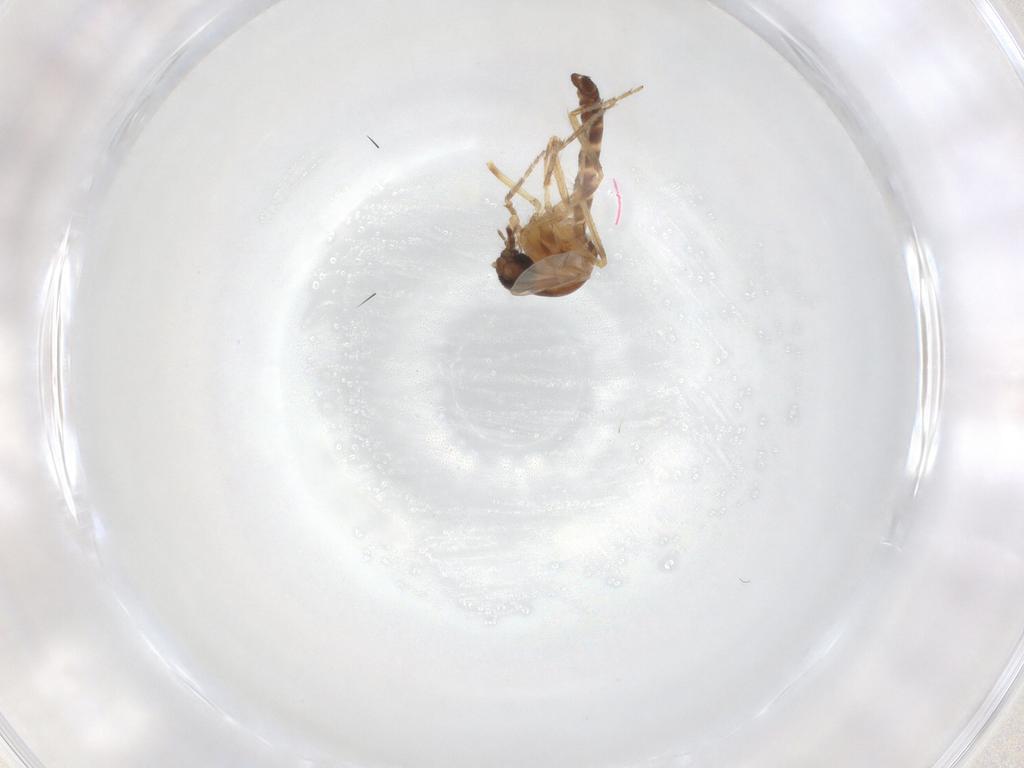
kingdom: Animalia
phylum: Arthropoda
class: Insecta
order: Diptera
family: Ceratopogonidae
